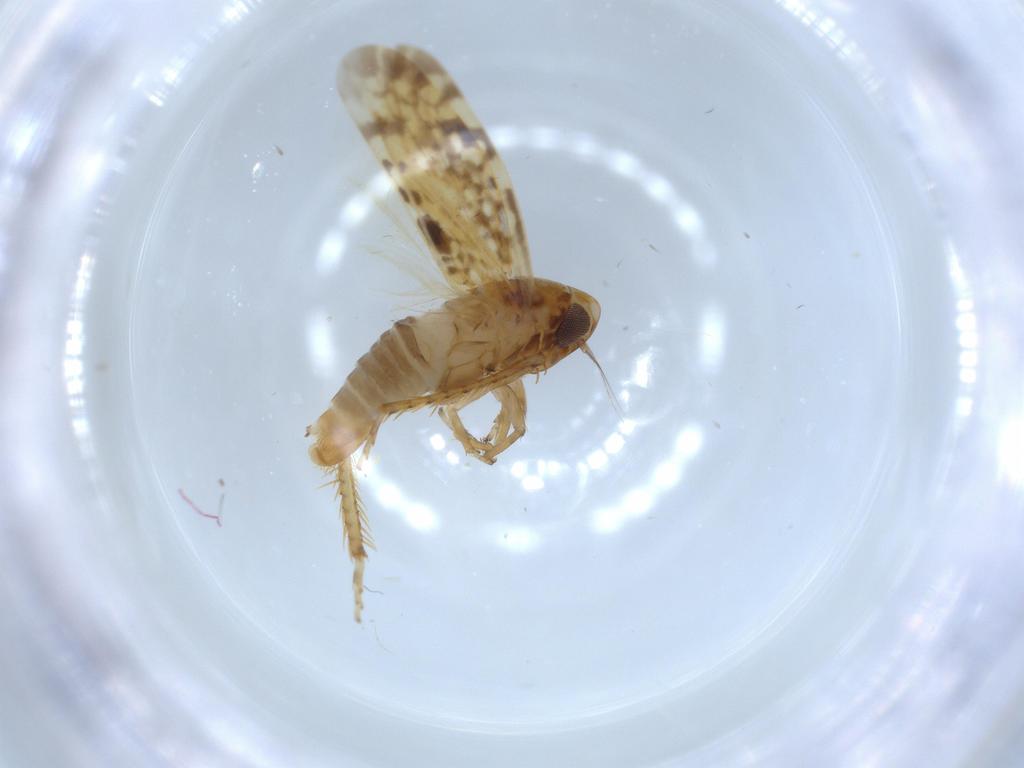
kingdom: Animalia
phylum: Arthropoda
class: Insecta
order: Hemiptera
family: Cicadellidae
